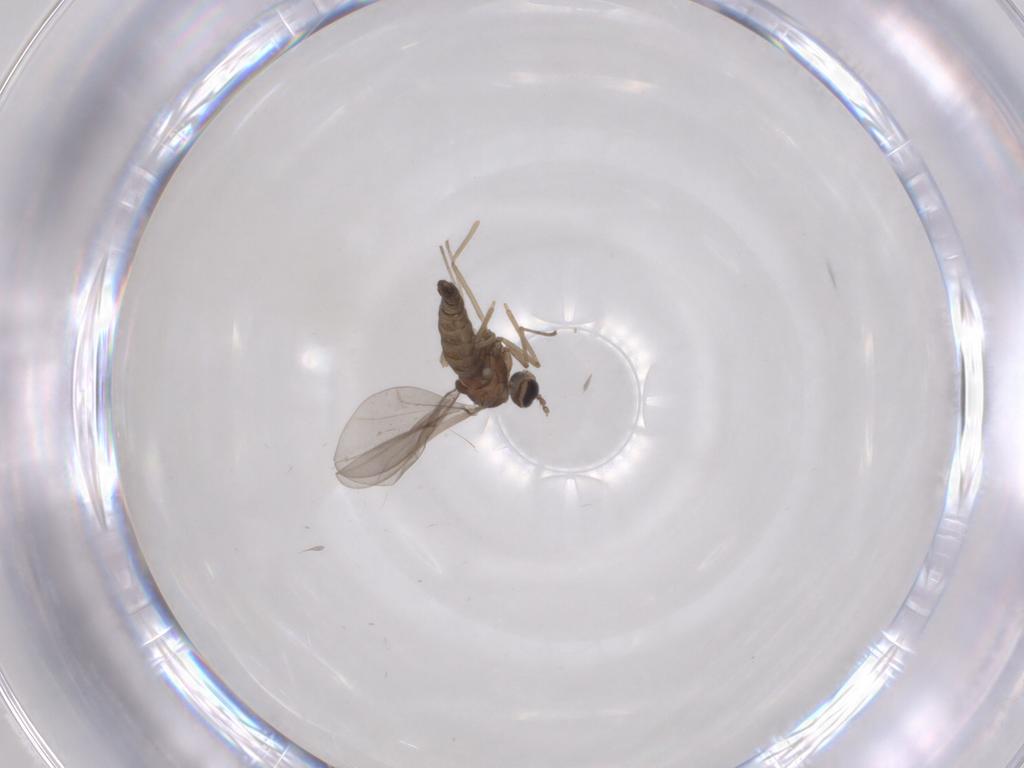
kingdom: Animalia
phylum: Arthropoda
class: Insecta
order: Diptera
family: Cecidomyiidae
